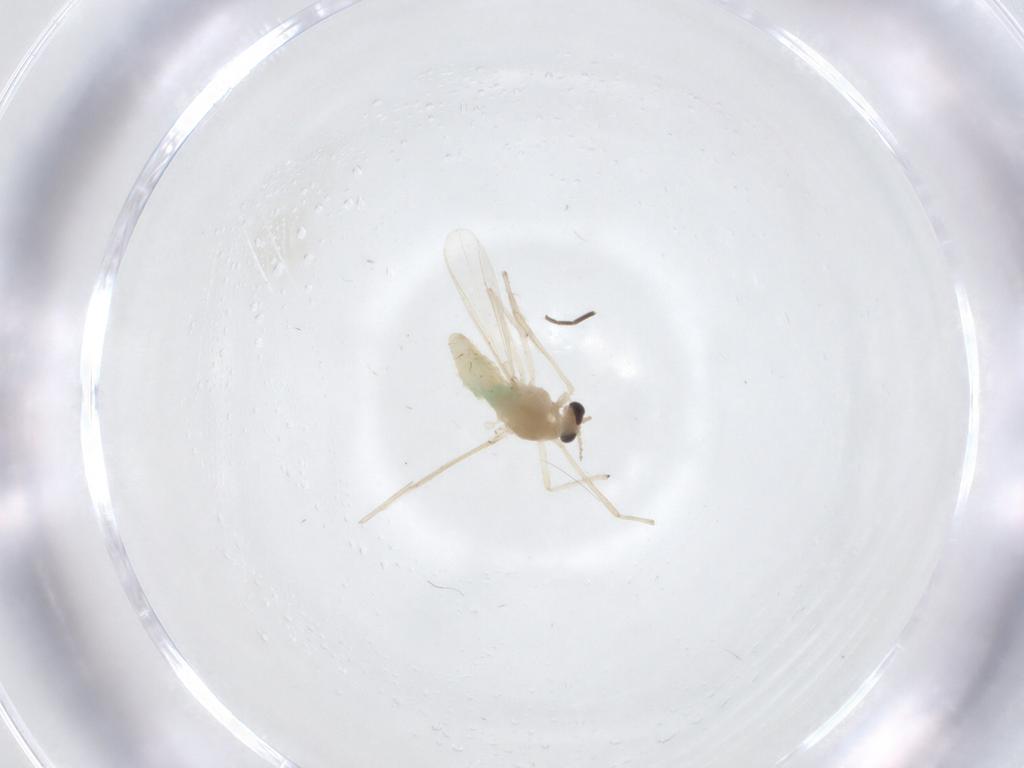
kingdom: Animalia
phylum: Arthropoda
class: Insecta
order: Diptera
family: Chironomidae
